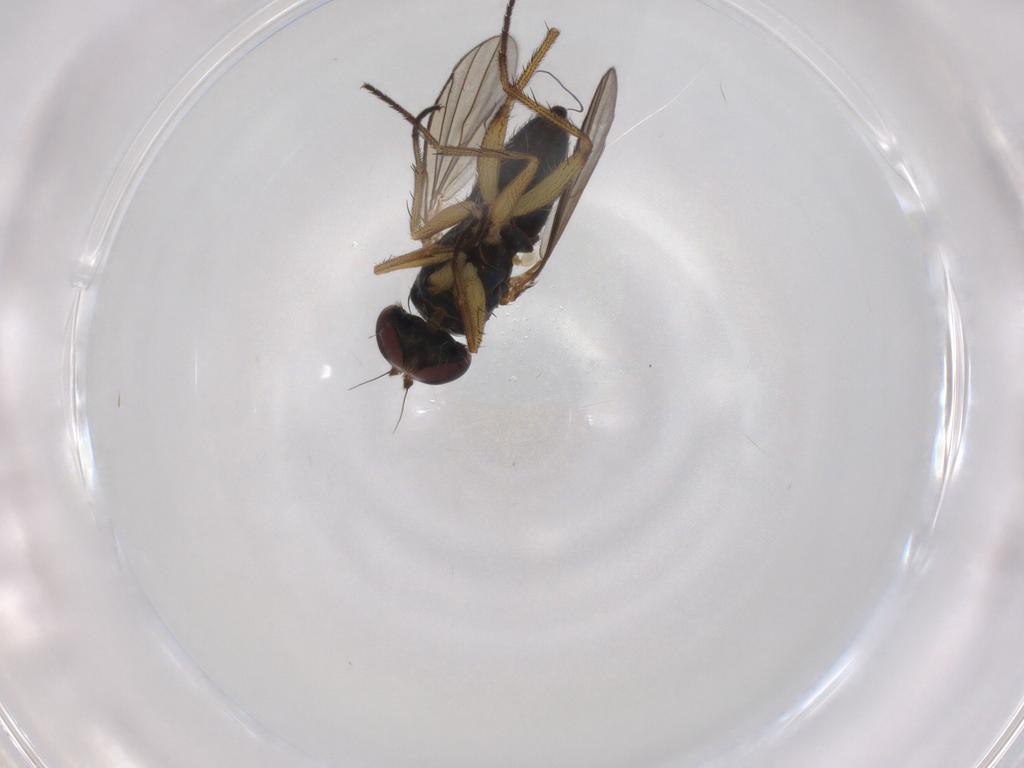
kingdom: Animalia
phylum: Arthropoda
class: Insecta
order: Diptera
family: Dolichopodidae
